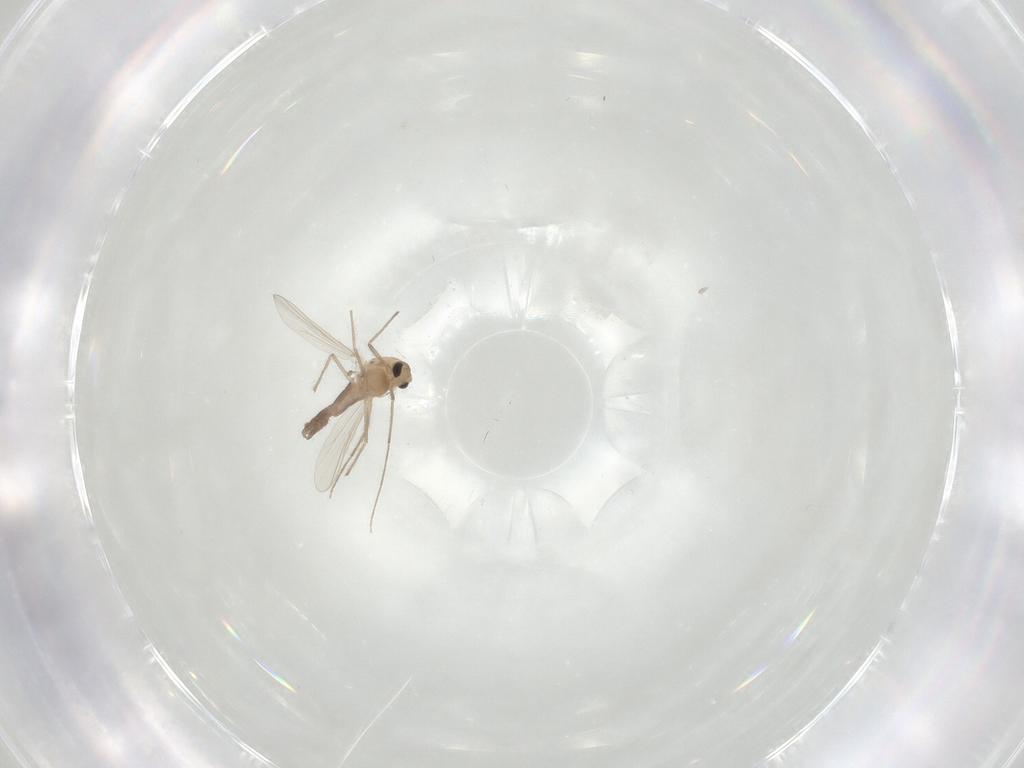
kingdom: Animalia
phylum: Arthropoda
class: Insecta
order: Diptera
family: Chironomidae
